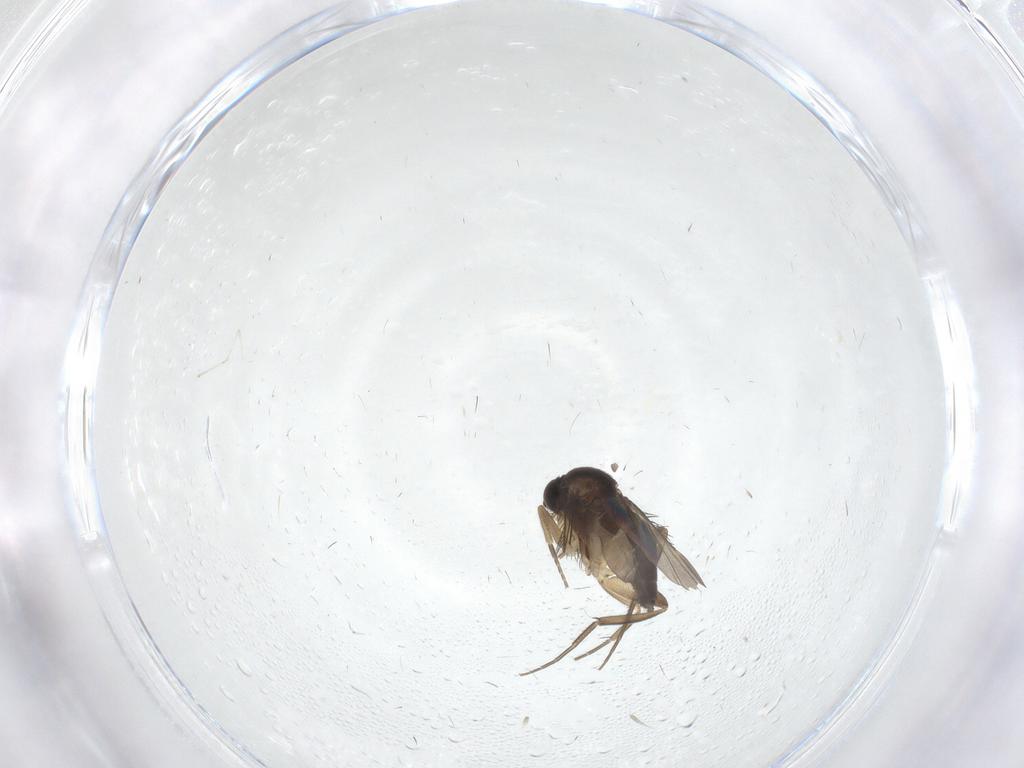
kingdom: Animalia
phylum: Arthropoda
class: Insecta
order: Diptera
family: Phoridae
